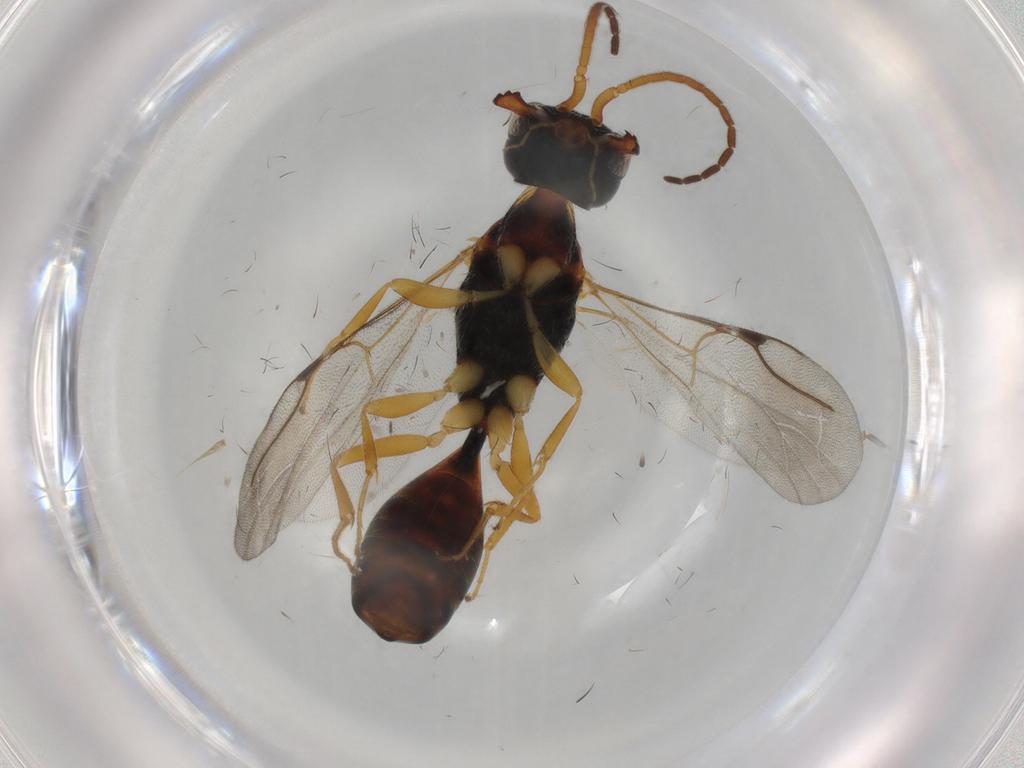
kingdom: Animalia
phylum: Arthropoda
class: Insecta
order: Hymenoptera
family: Bethylidae
